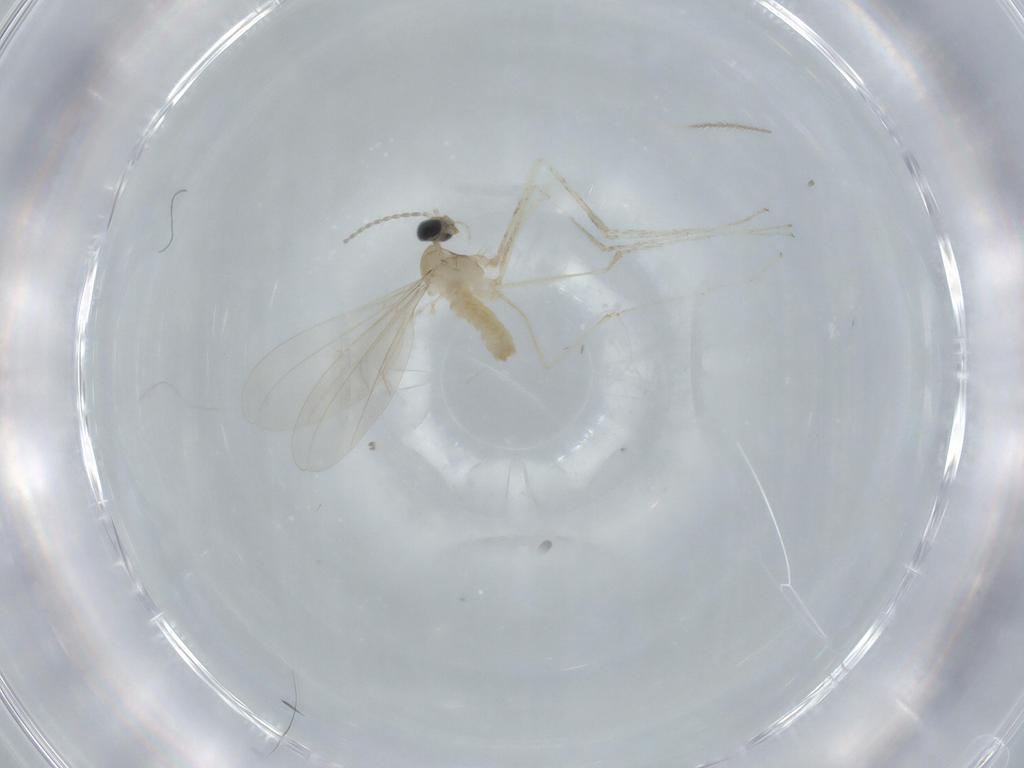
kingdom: Animalia
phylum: Arthropoda
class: Insecta
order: Diptera
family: Cecidomyiidae
